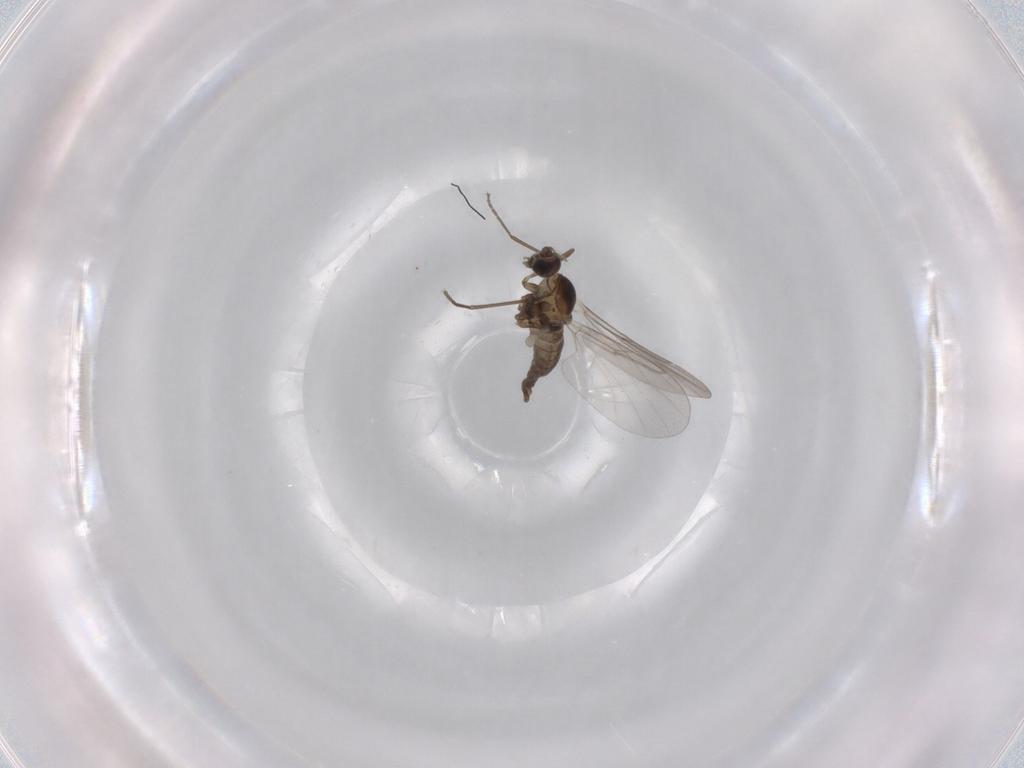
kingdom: Animalia
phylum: Arthropoda
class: Insecta
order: Diptera
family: Cecidomyiidae
